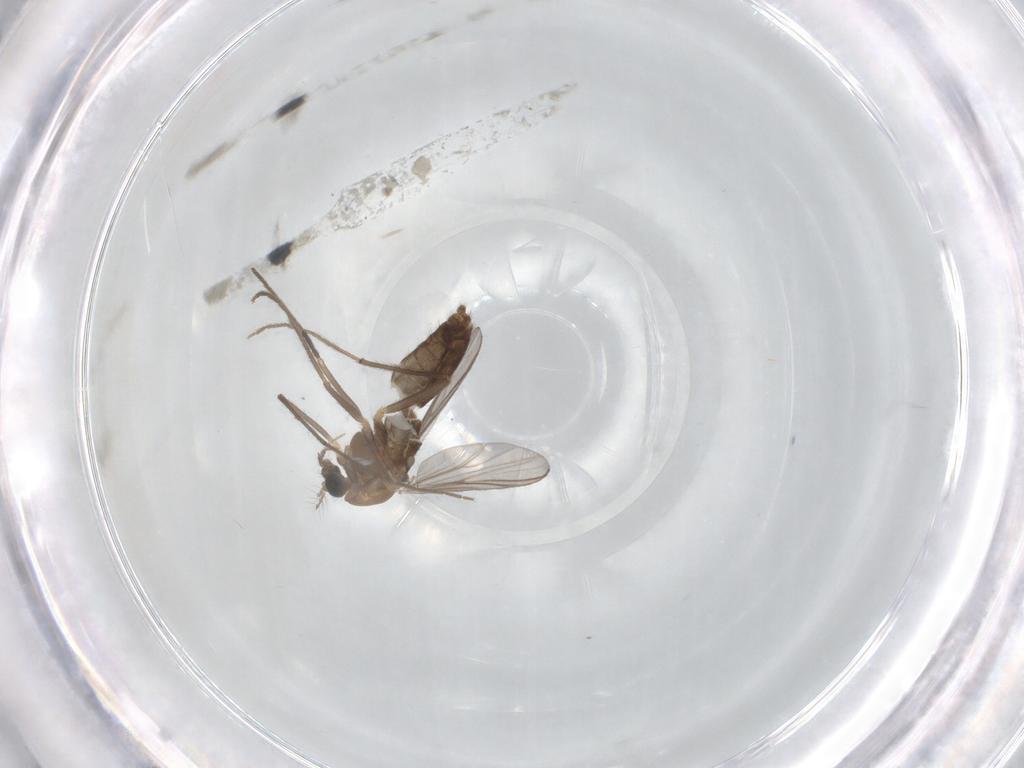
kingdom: Animalia
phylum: Arthropoda
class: Insecta
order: Diptera
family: Chironomidae
